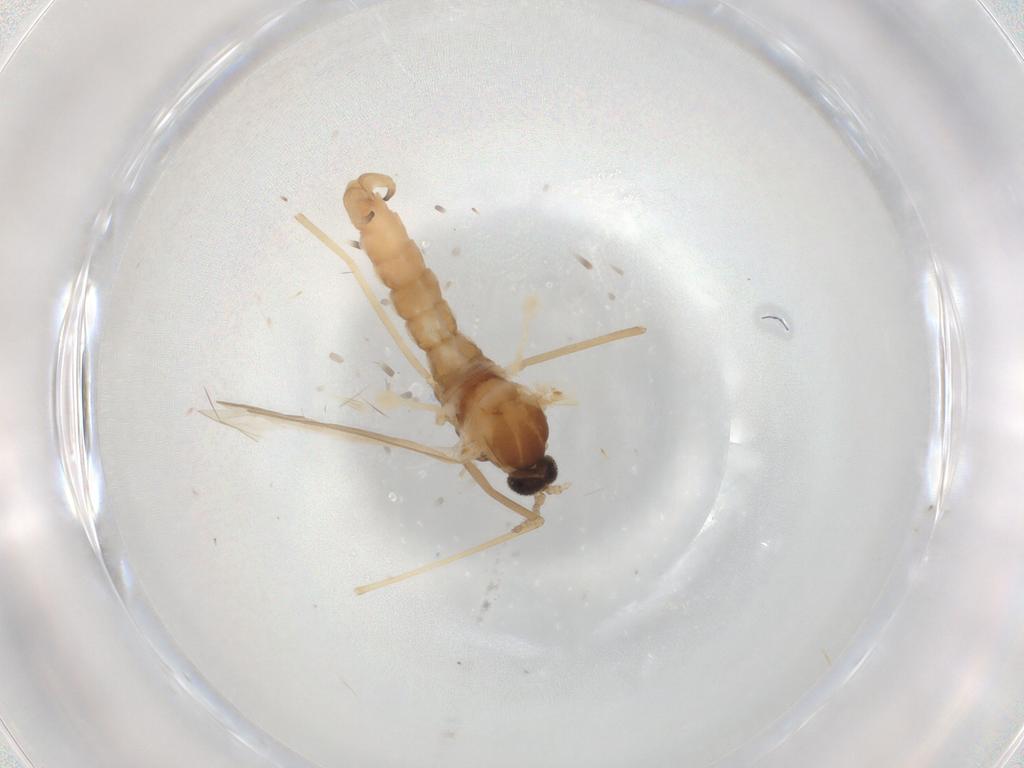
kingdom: Animalia
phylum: Arthropoda
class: Insecta
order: Diptera
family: Cecidomyiidae
